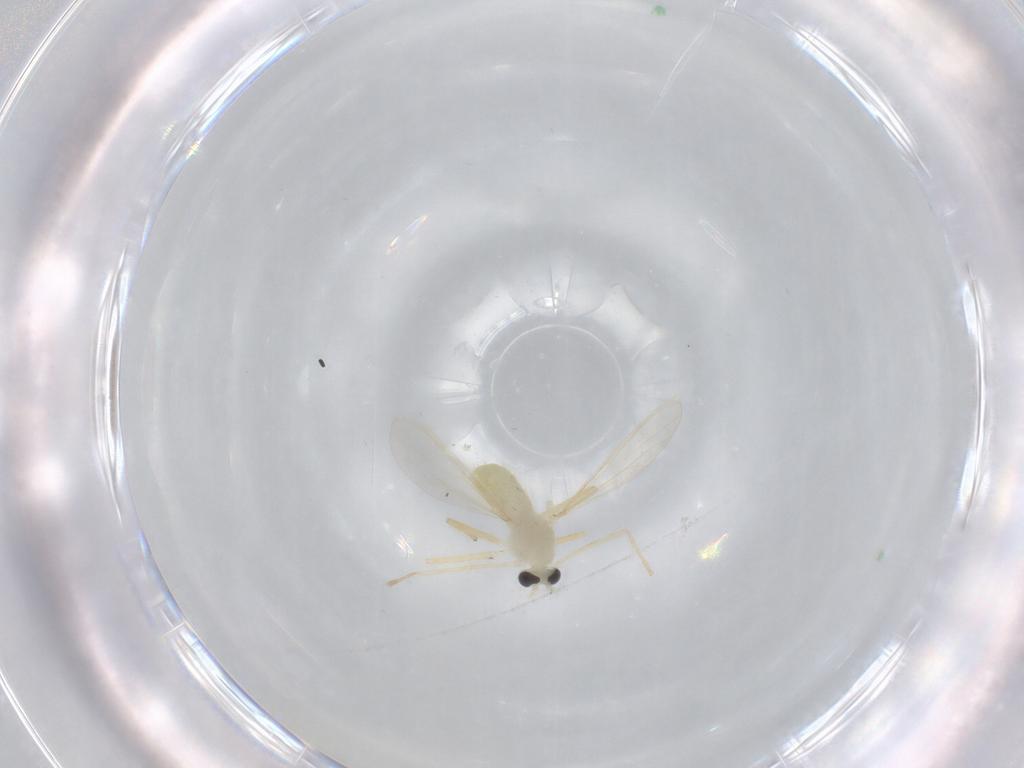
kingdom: Animalia
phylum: Arthropoda
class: Insecta
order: Diptera
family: Chironomidae
